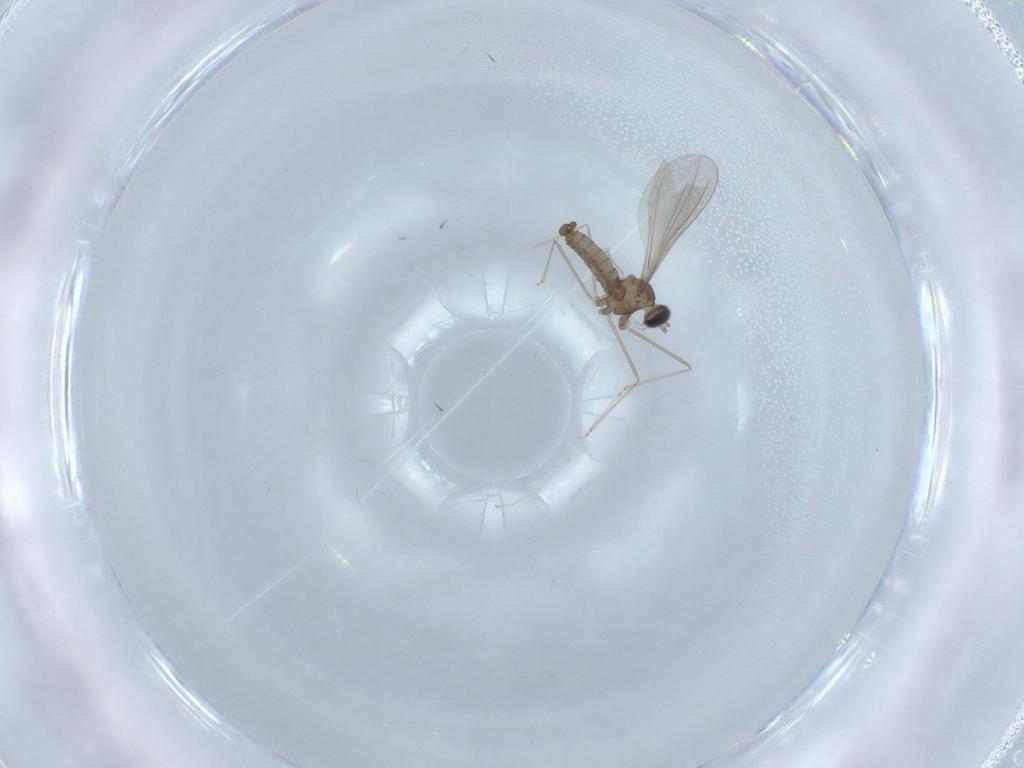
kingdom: Animalia
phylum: Arthropoda
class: Insecta
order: Diptera
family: Cecidomyiidae
